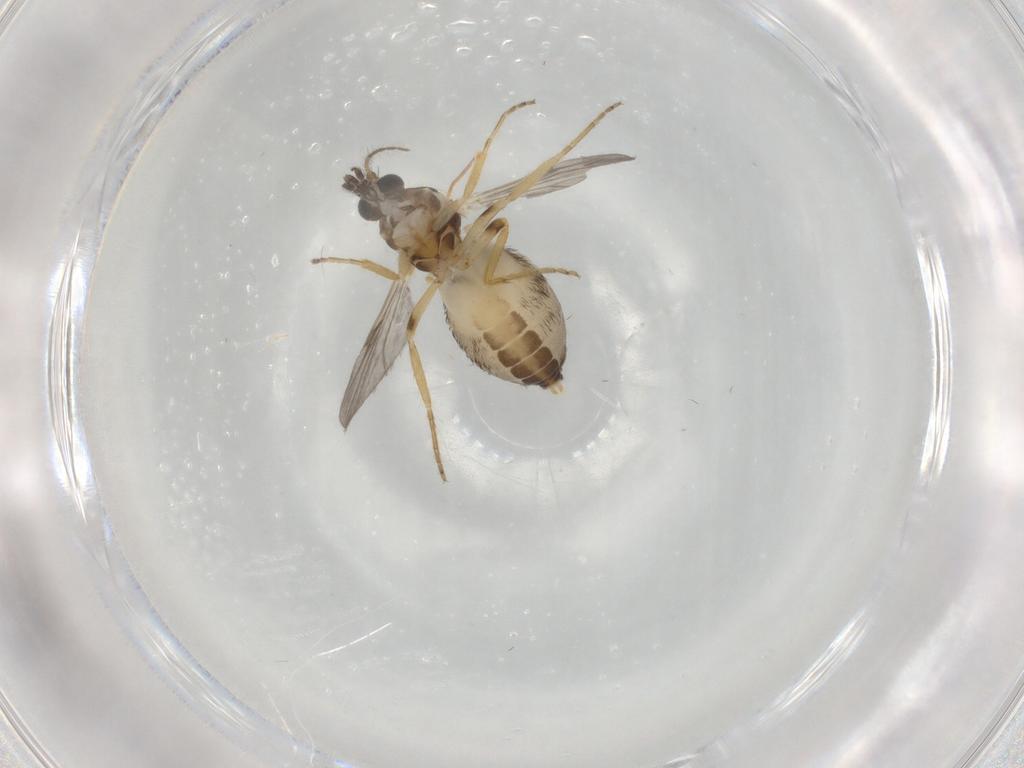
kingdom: Animalia
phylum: Arthropoda
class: Insecta
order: Diptera
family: Ceratopogonidae
